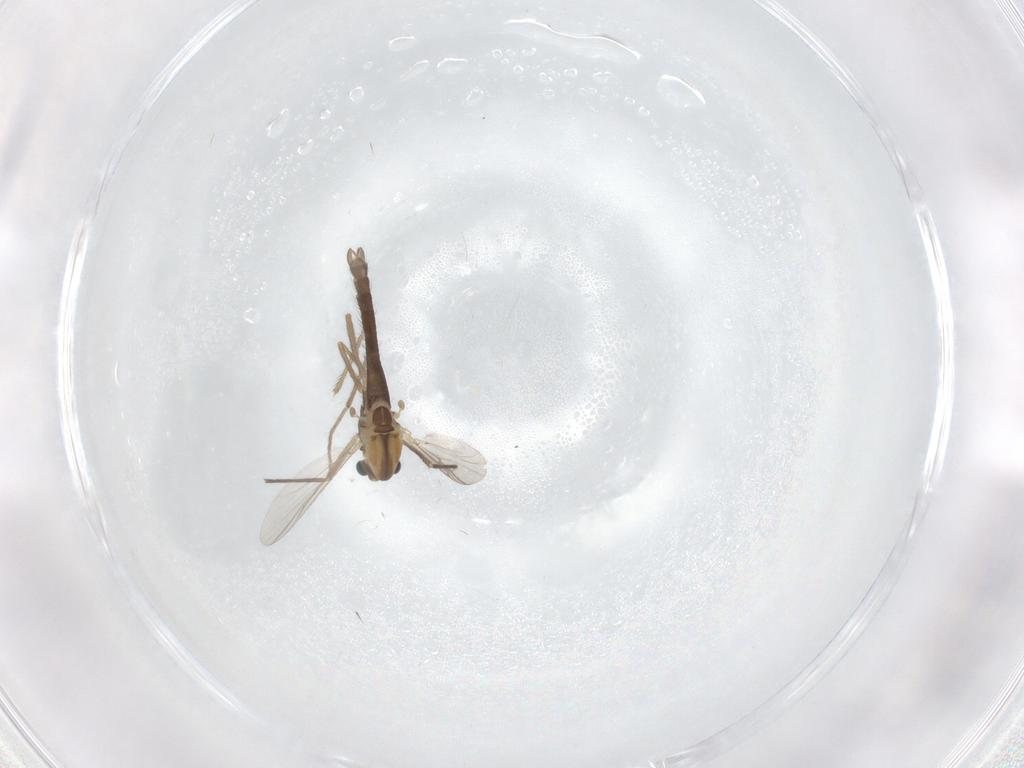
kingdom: Animalia
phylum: Arthropoda
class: Insecta
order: Diptera
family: Chironomidae
